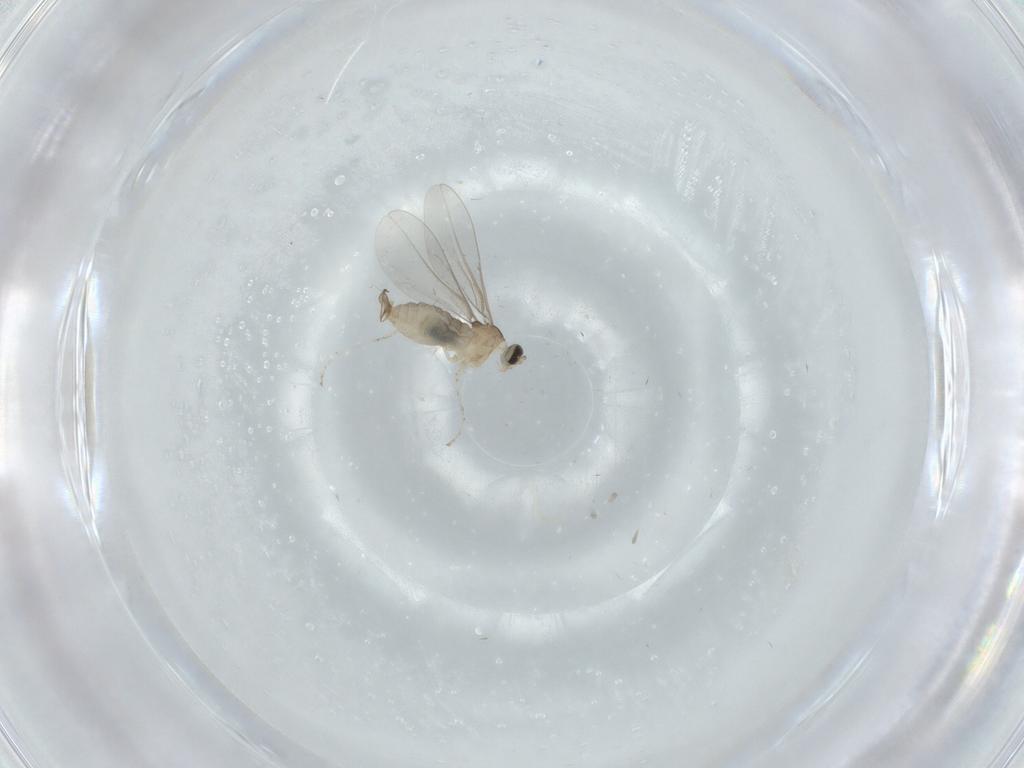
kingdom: Animalia
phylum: Arthropoda
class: Insecta
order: Diptera
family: Cecidomyiidae
